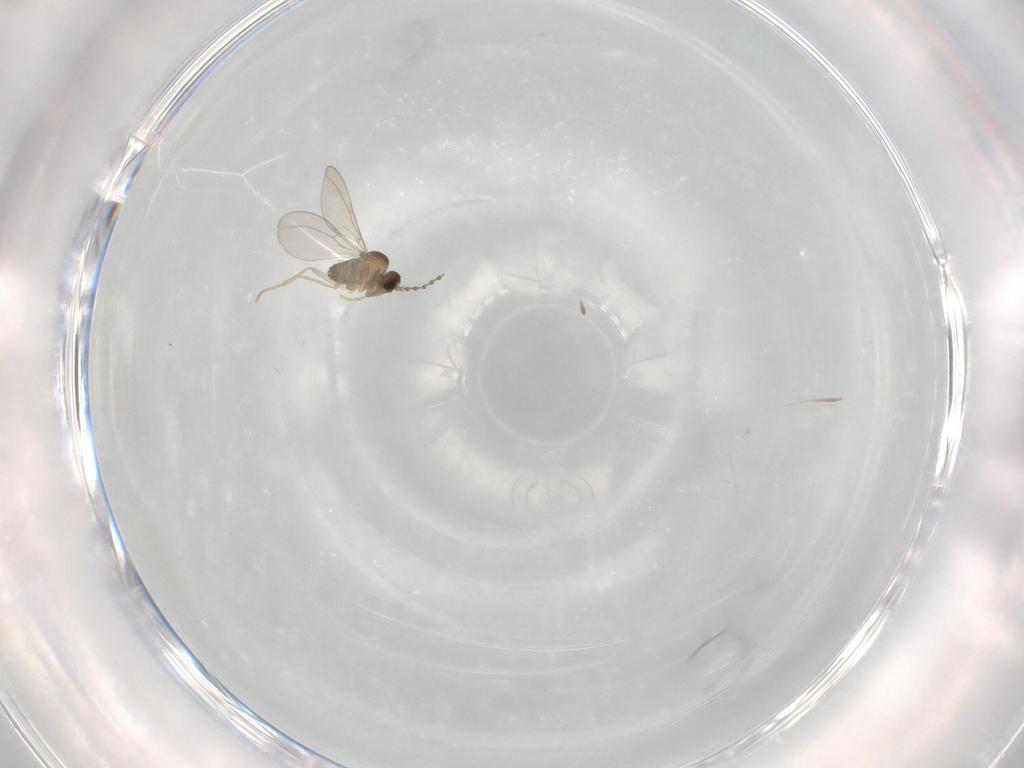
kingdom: Animalia
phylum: Arthropoda
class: Insecta
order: Diptera
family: Cecidomyiidae
